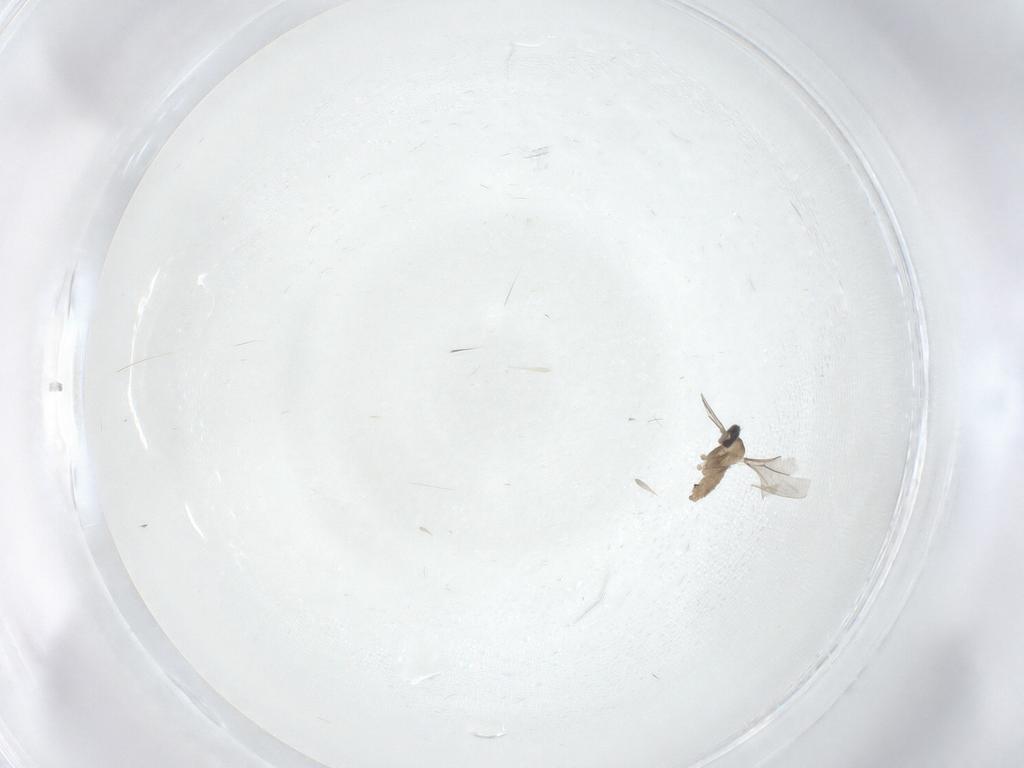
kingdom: Animalia
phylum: Arthropoda
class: Insecta
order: Diptera
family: Cecidomyiidae
